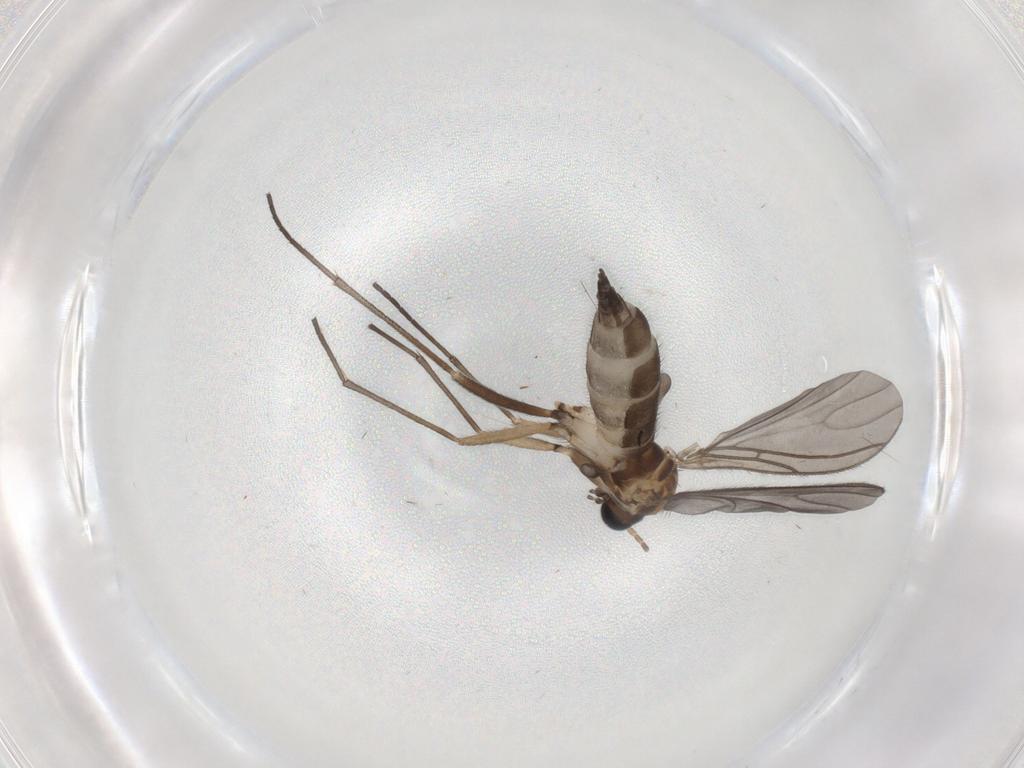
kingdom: Animalia
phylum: Arthropoda
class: Insecta
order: Diptera
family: Sciaridae
